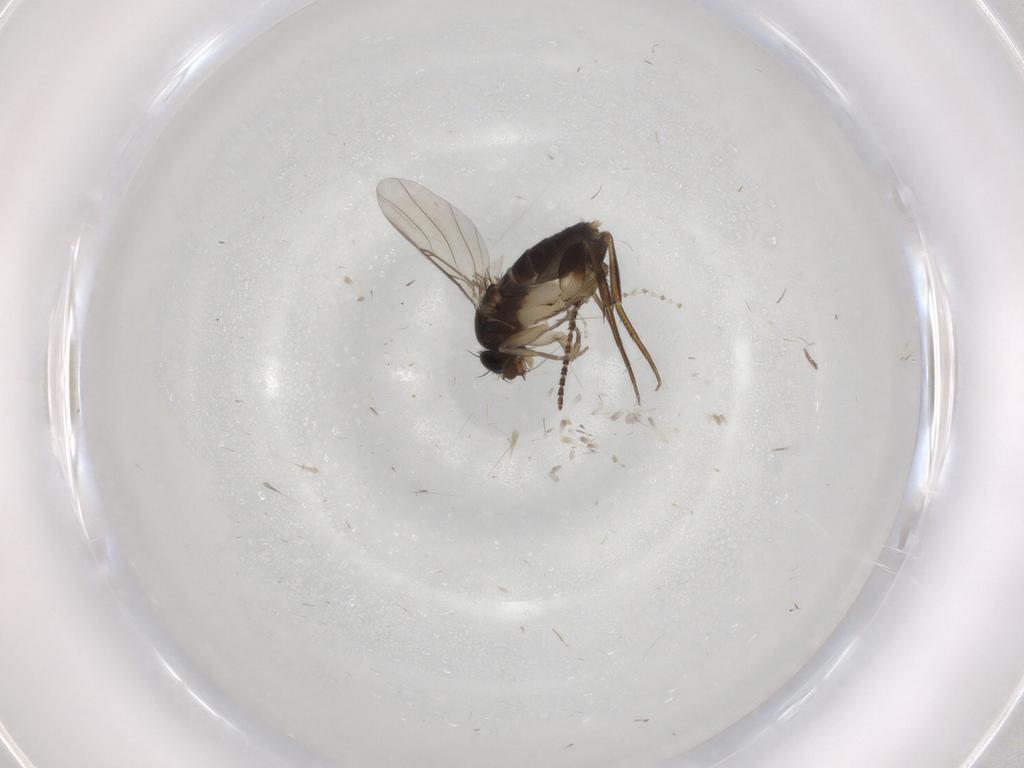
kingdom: Animalia
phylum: Arthropoda
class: Insecta
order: Diptera
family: Phoridae
